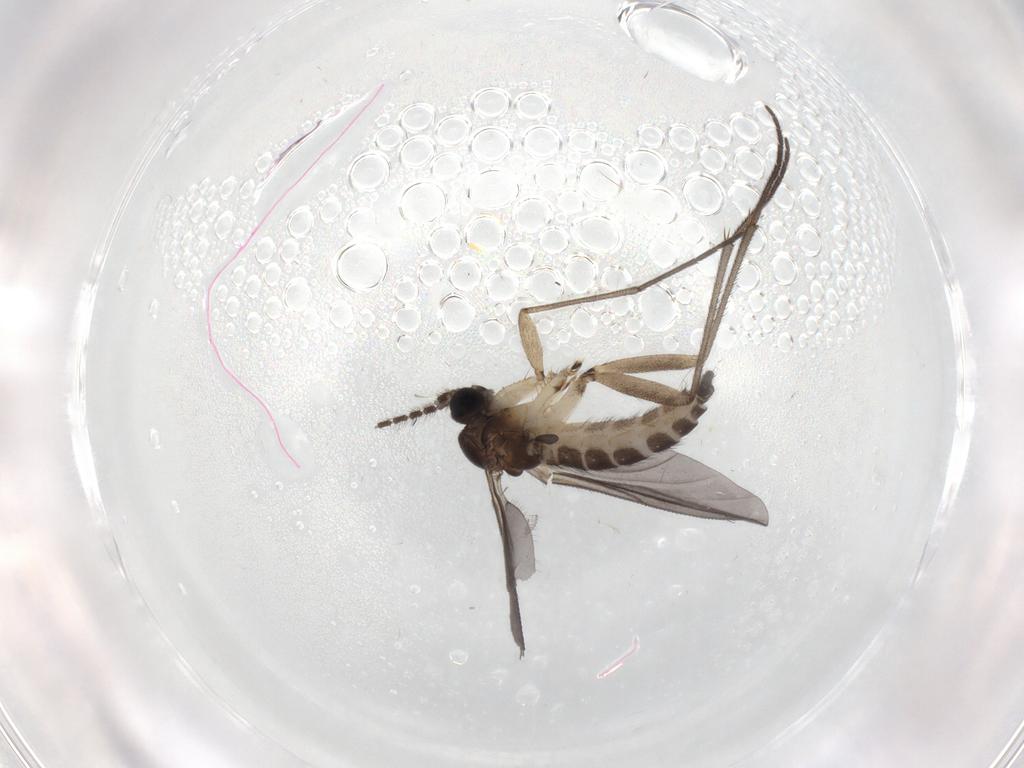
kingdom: Animalia
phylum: Arthropoda
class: Insecta
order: Diptera
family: Sciaridae
